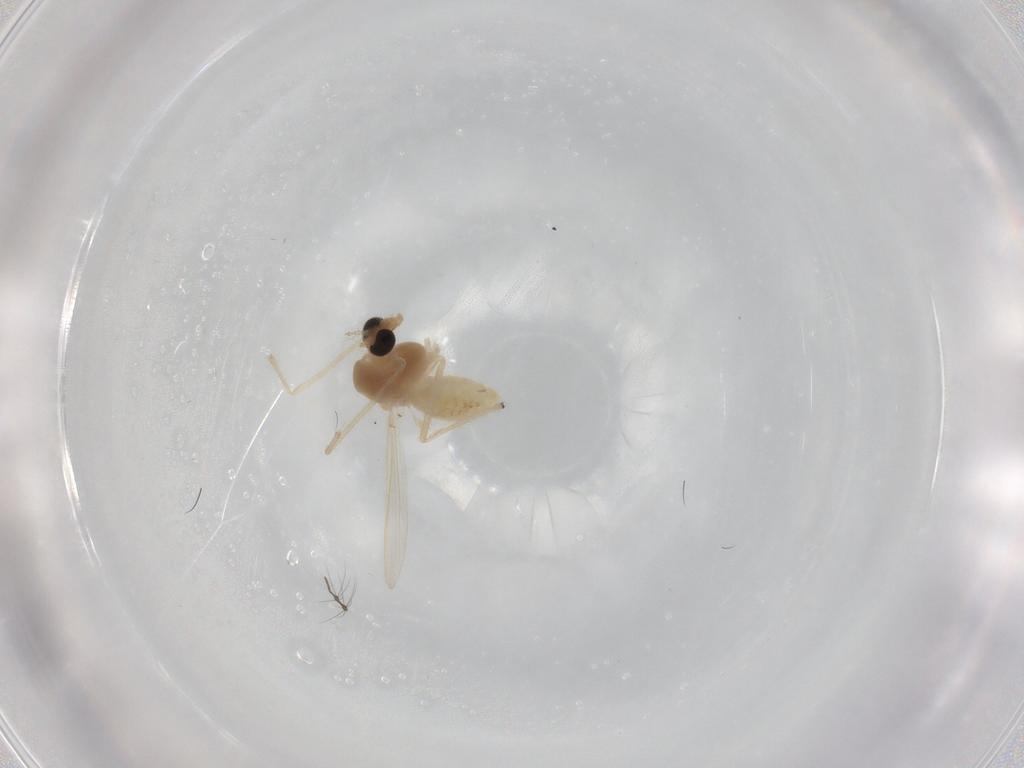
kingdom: Animalia
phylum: Arthropoda
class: Insecta
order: Diptera
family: Chironomidae
